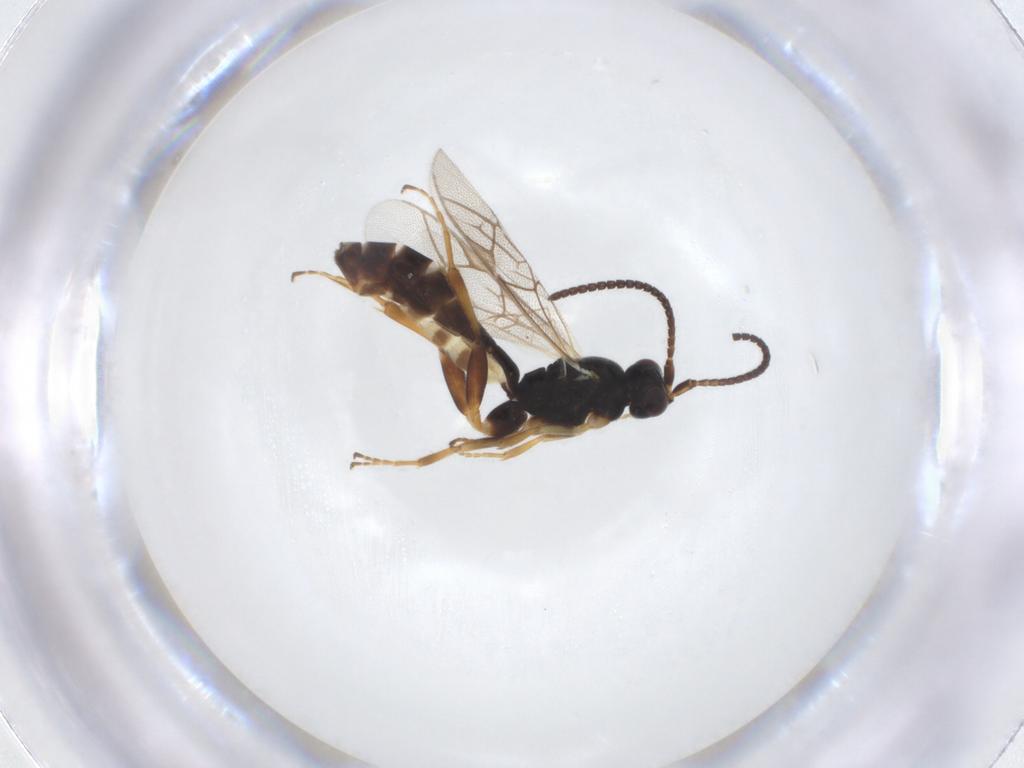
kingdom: Animalia
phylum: Arthropoda
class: Insecta
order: Hymenoptera
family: Ichneumonidae
